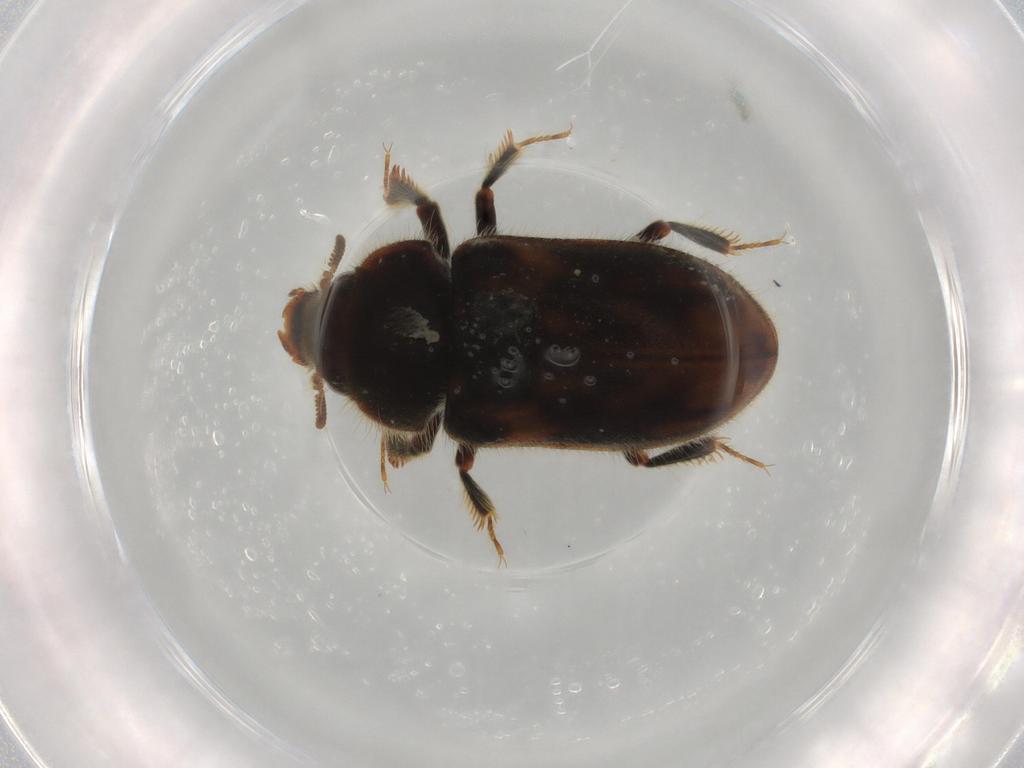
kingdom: Animalia
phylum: Arthropoda
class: Insecta
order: Coleoptera
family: Heteroceridae
